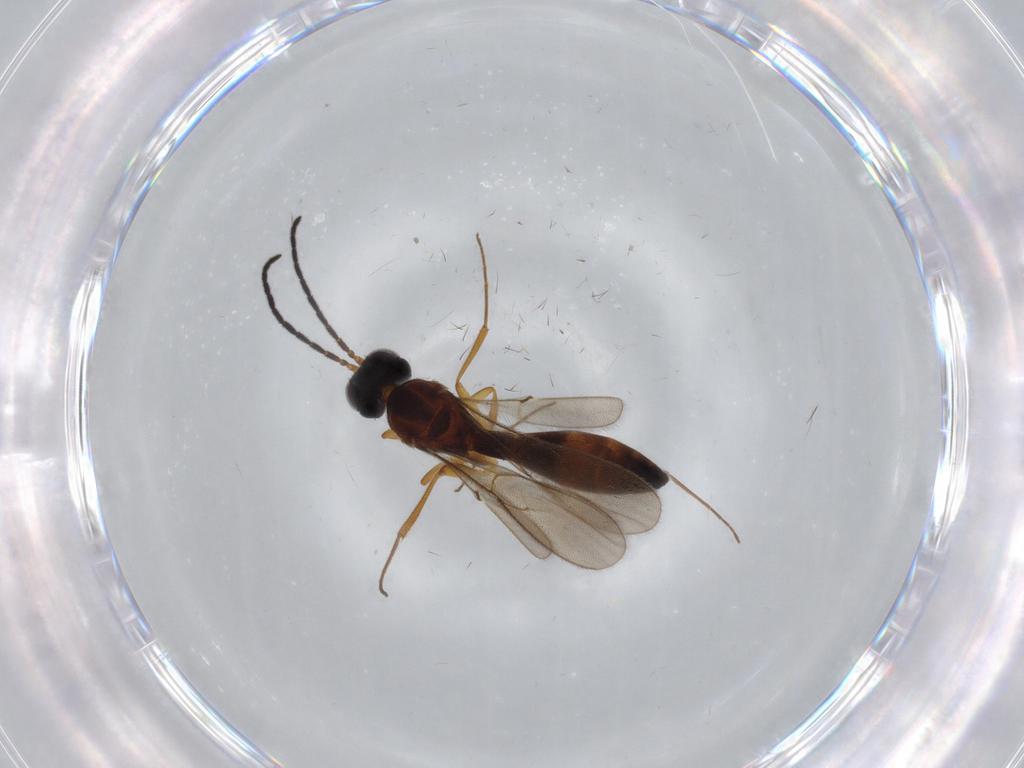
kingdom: Animalia
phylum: Arthropoda
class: Insecta
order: Hymenoptera
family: Scelionidae
